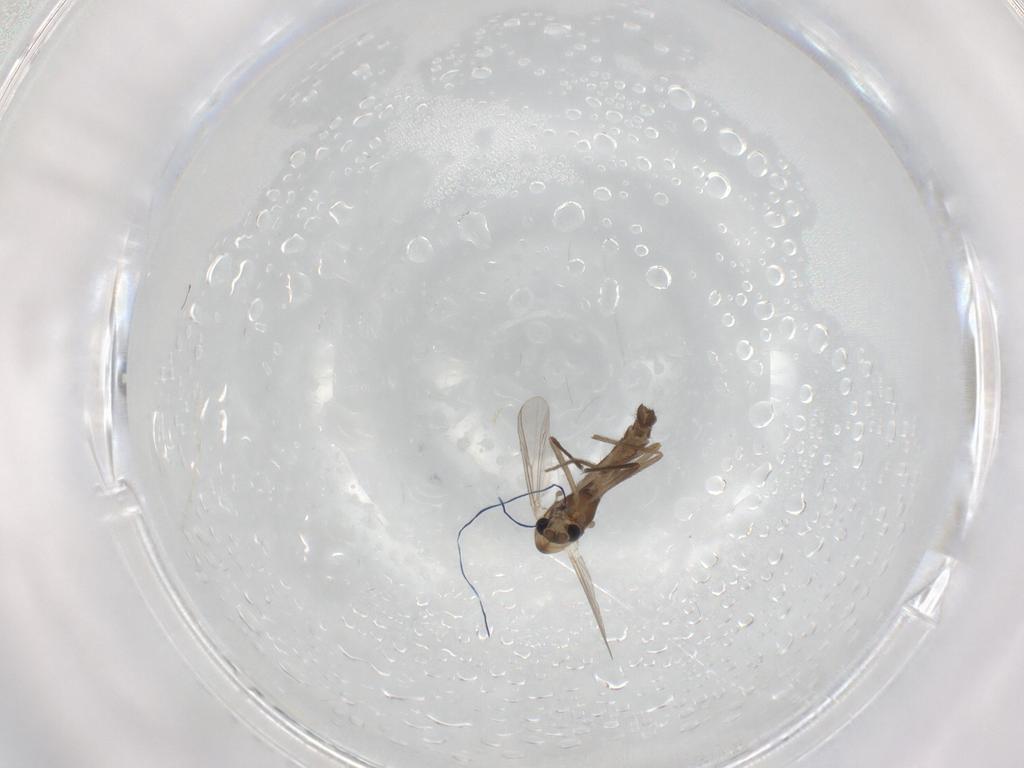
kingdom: Animalia
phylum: Arthropoda
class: Insecta
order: Diptera
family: Chironomidae
